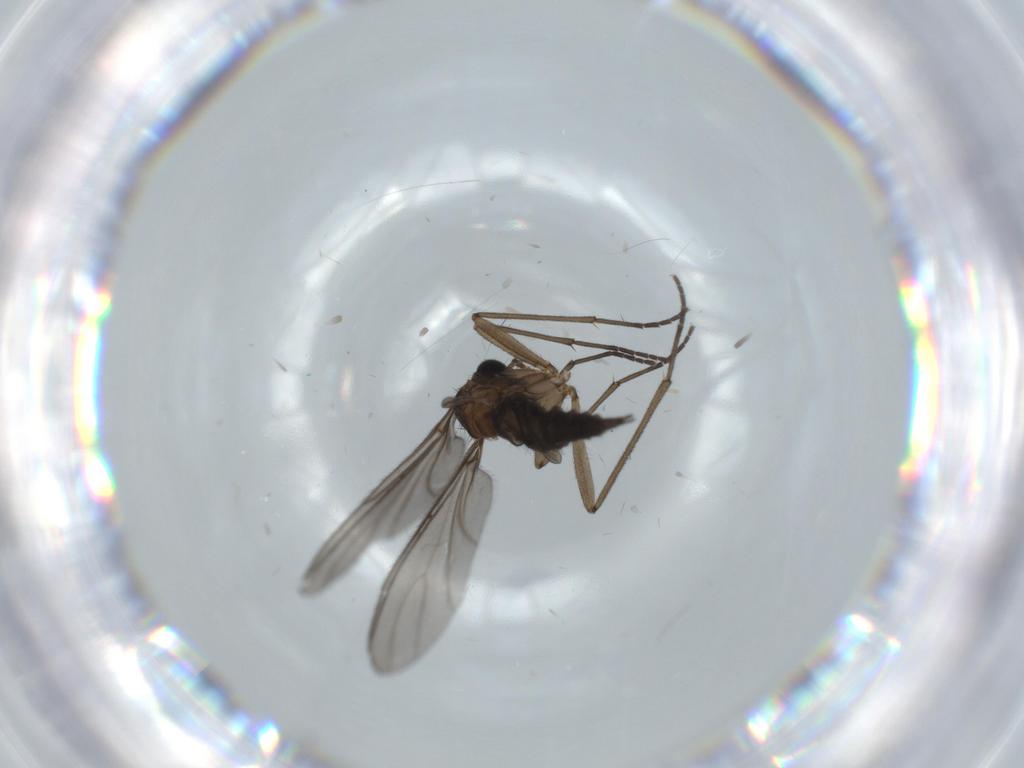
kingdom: Animalia
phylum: Arthropoda
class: Insecta
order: Diptera
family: Sciaridae
